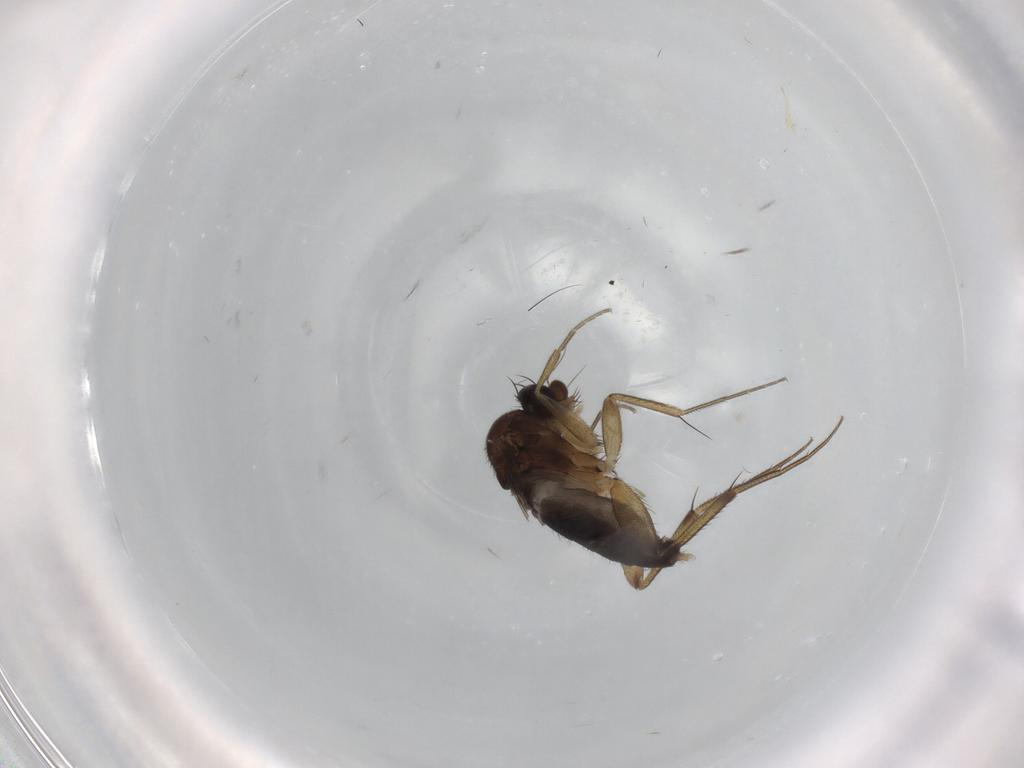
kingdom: Animalia
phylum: Arthropoda
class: Insecta
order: Diptera
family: Phoridae
